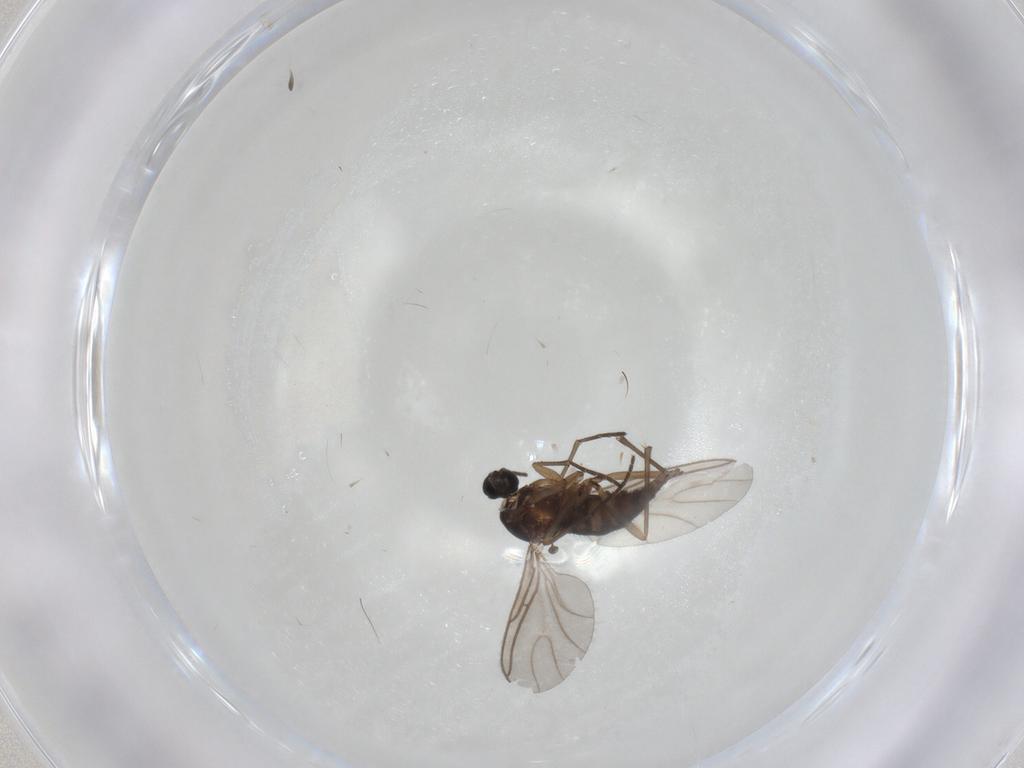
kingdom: Animalia
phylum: Arthropoda
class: Insecta
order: Diptera
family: Sciaridae
